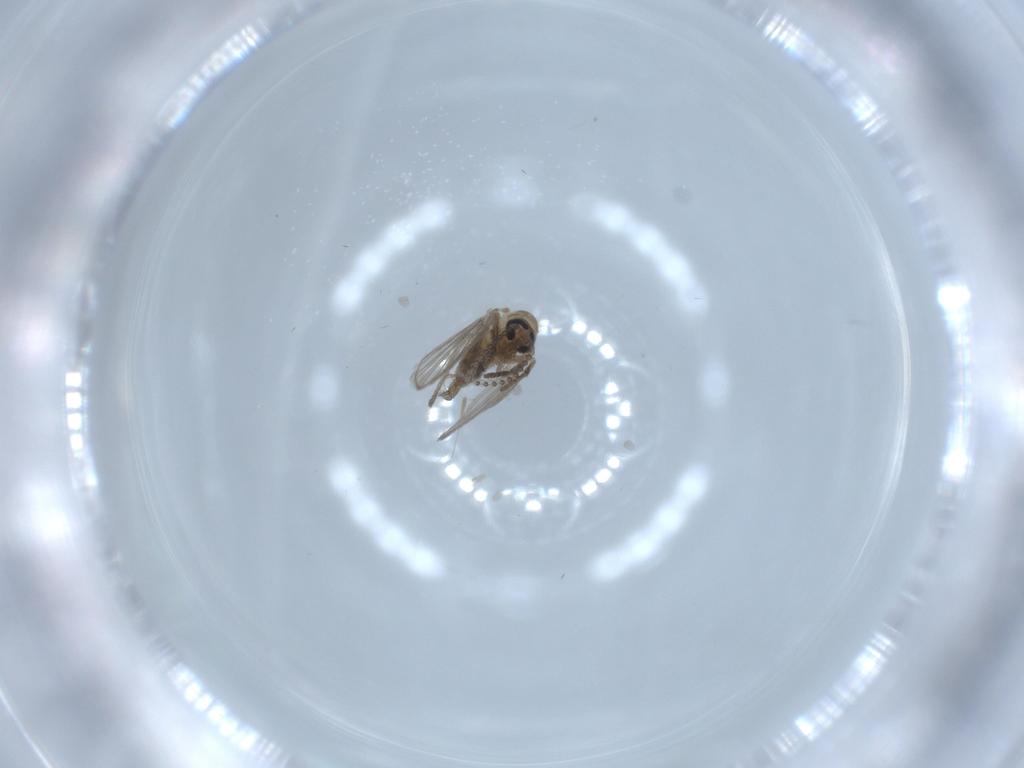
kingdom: Animalia
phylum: Arthropoda
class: Insecta
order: Diptera
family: Psychodidae
